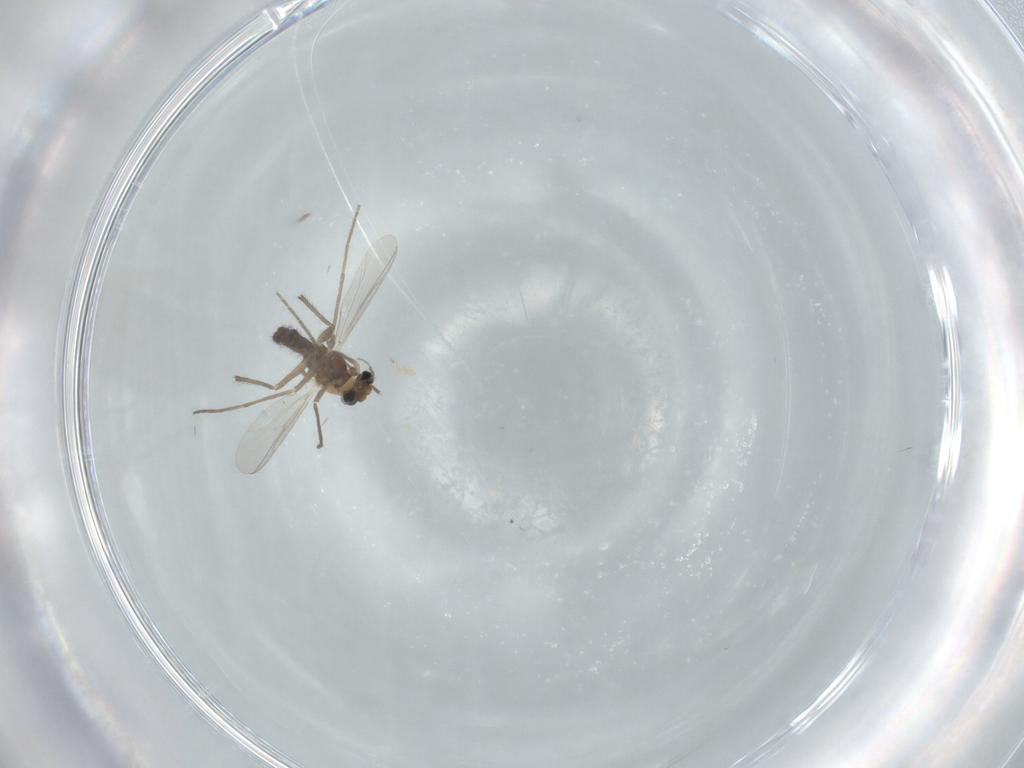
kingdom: Animalia
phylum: Arthropoda
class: Insecta
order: Diptera
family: Chironomidae
